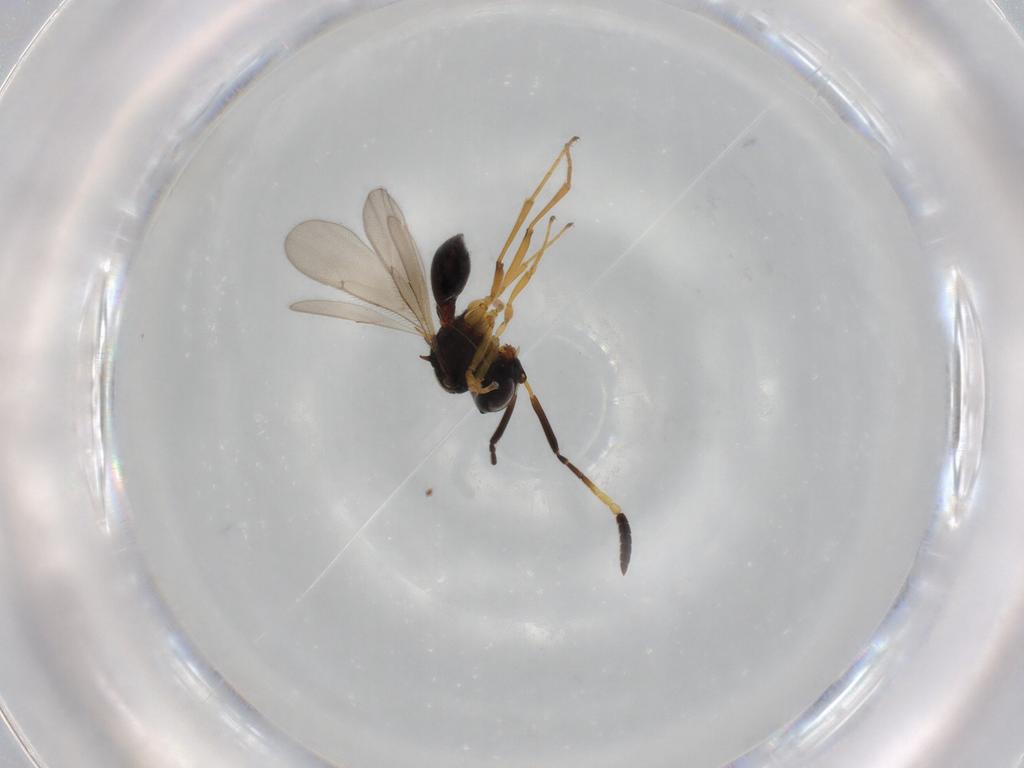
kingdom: Animalia
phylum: Arthropoda
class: Insecta
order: Hymenoptera
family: Scelionidae
